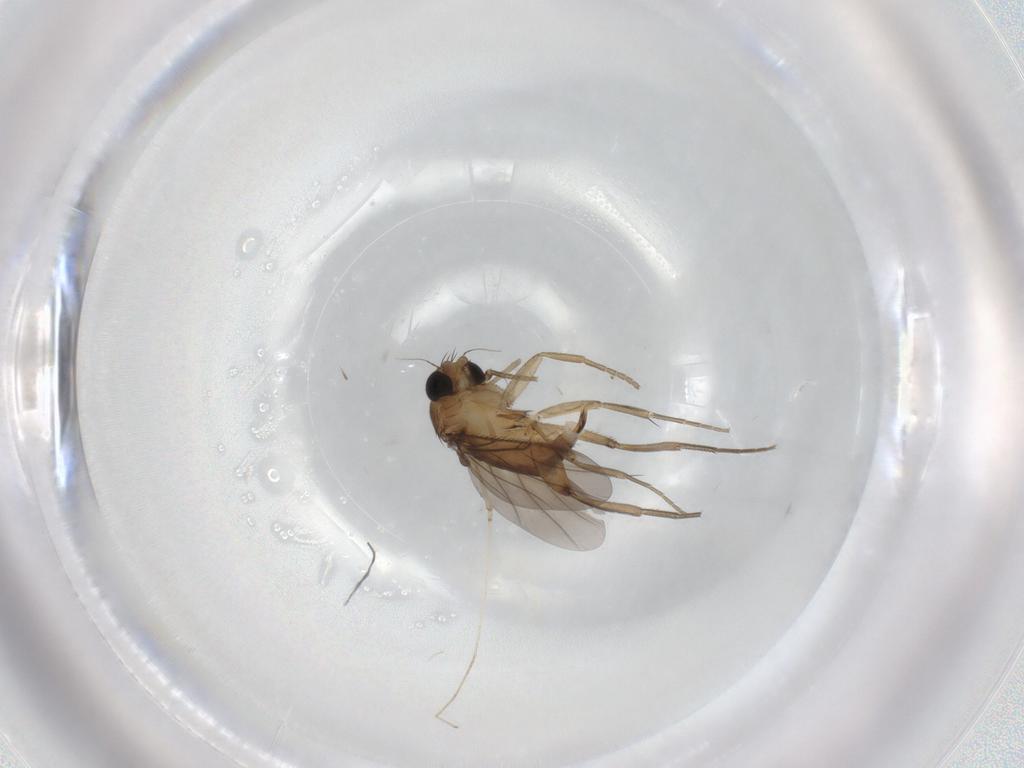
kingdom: Animalia
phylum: Arthropoda
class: Insecta
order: Diptera
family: Phoridae
